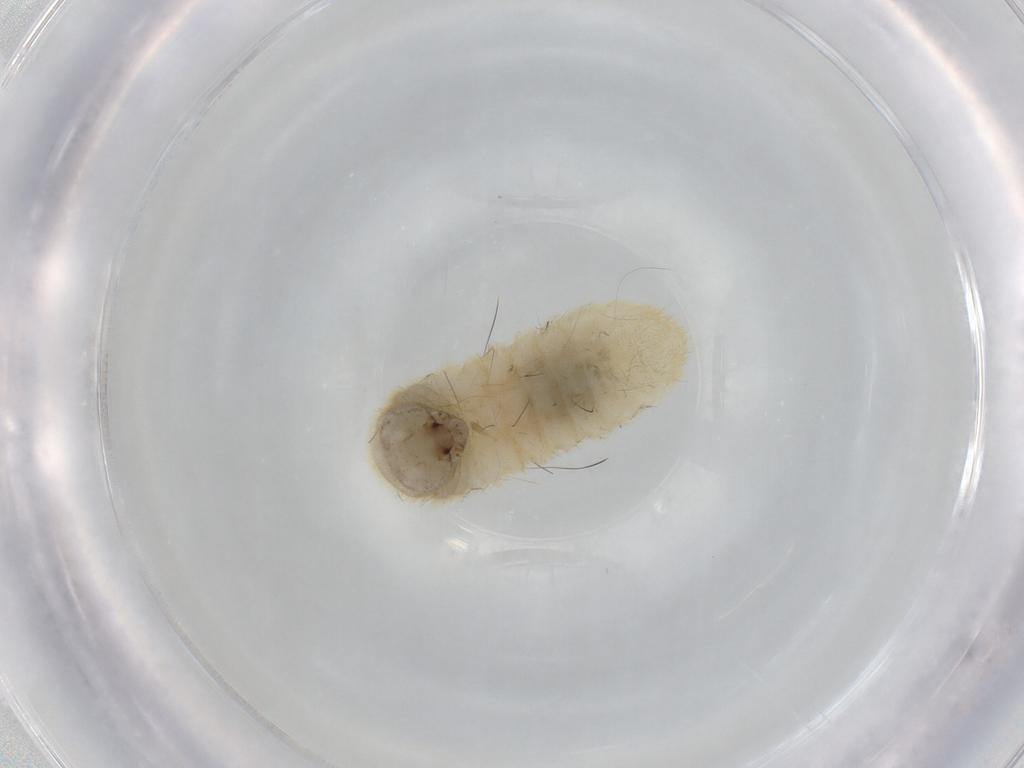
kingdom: Animalia
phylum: Arthropoda
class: Insecta
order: Coleoptera
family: Anthribidae
